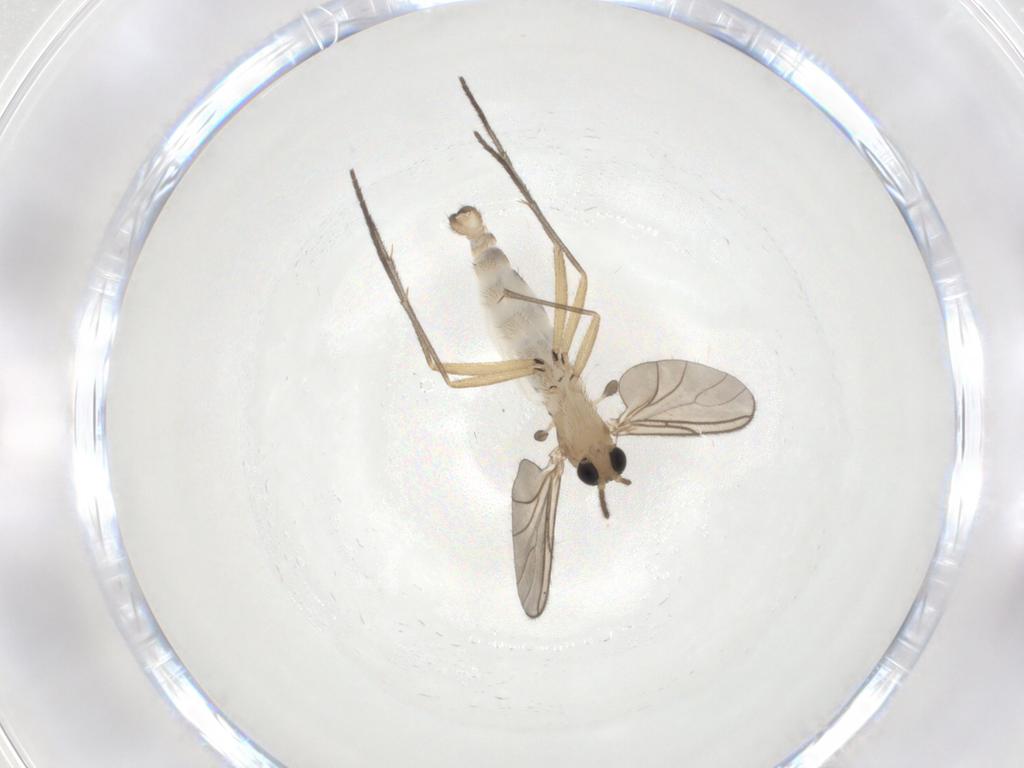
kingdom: Animalia
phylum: Arthropoda
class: Insecta
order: Diptera
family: Sciaridae
